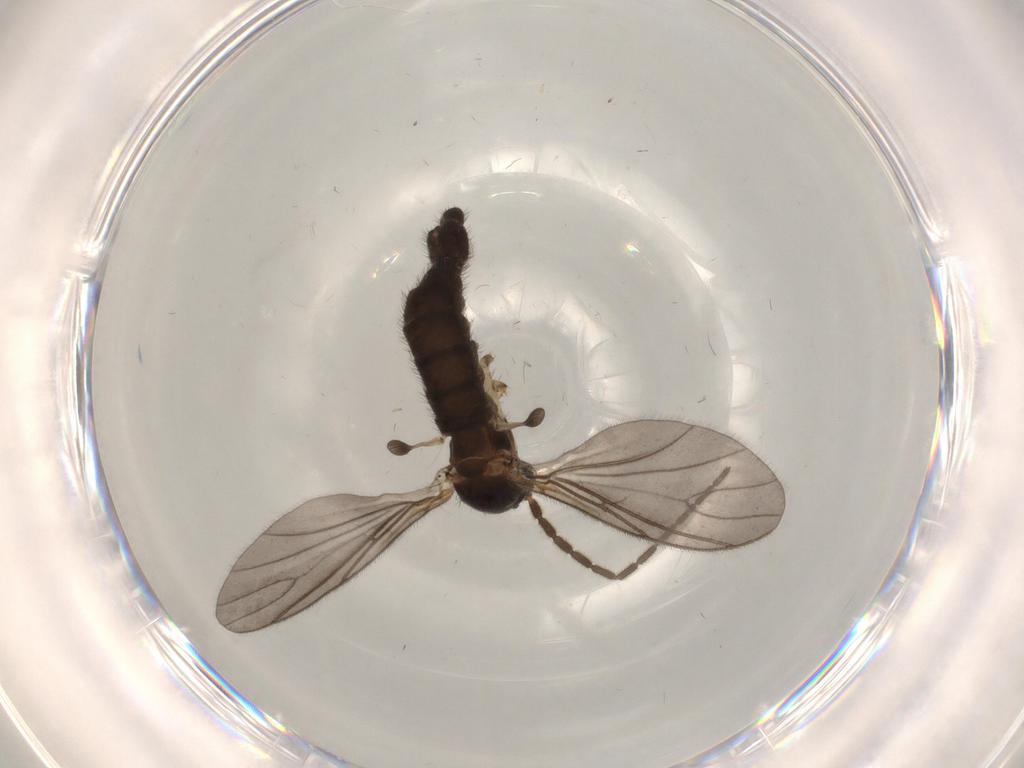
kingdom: Animalia
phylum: Arthropoda
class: Insecta
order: Diptera
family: Sciaridae
